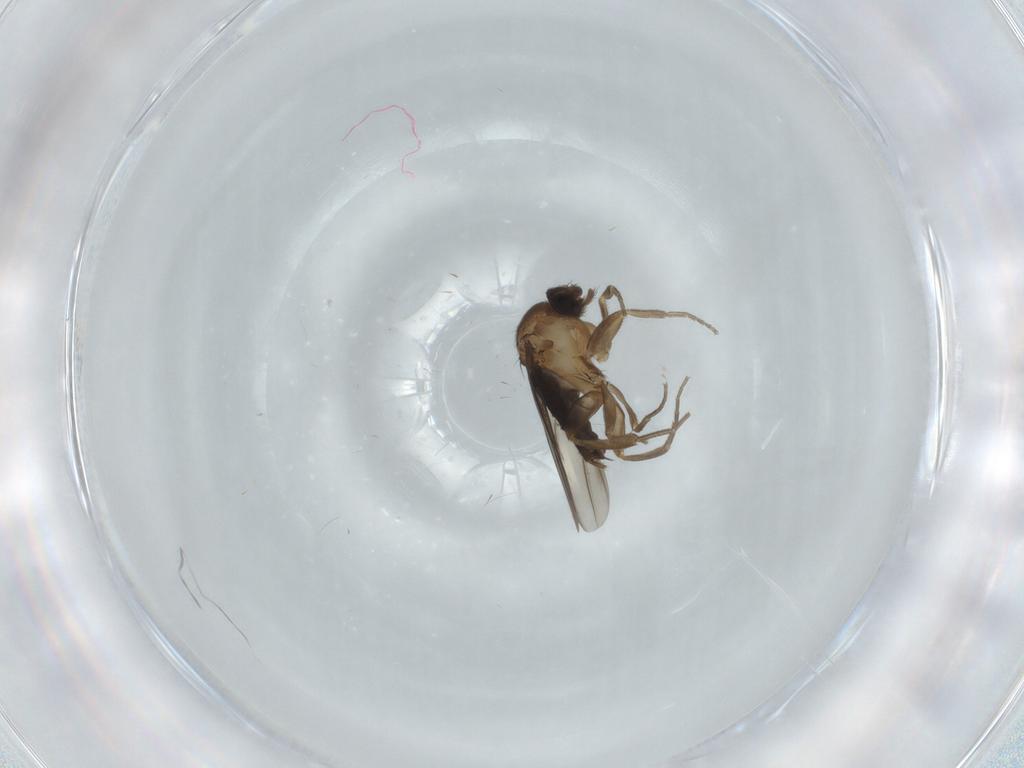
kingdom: Animalia
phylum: Arthropoda
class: Insecta
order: Diptera
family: Phoridae
